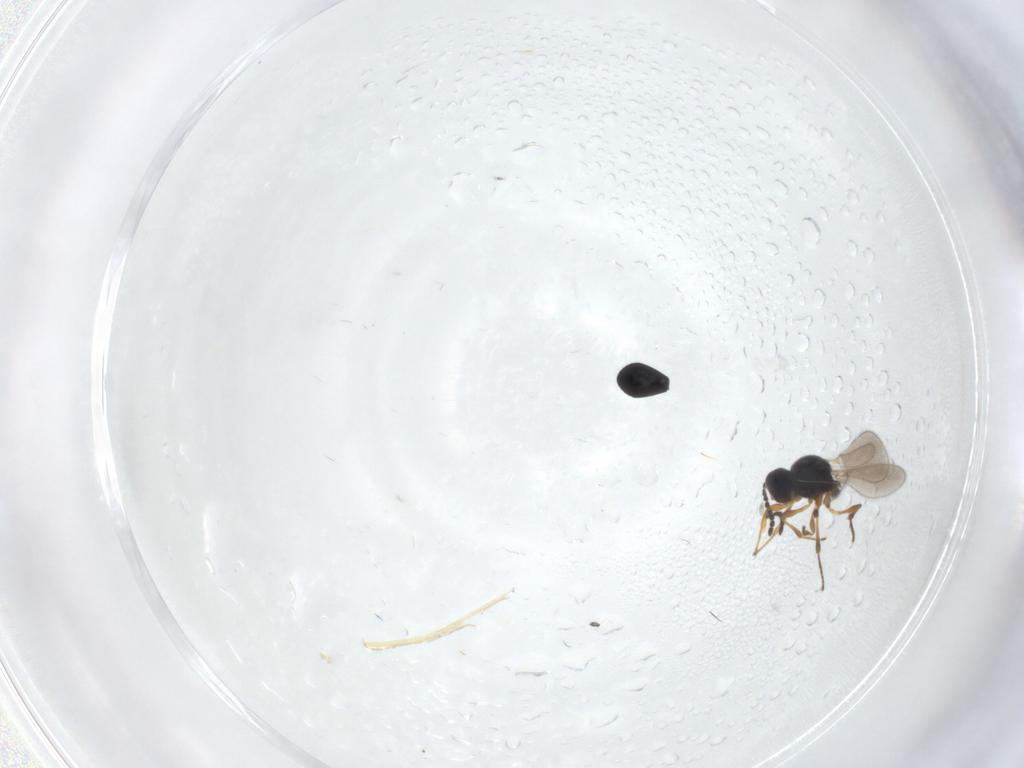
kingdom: Animalia
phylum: Arthropoda
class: Insecta
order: Hymenoptera
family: Platygastridae
